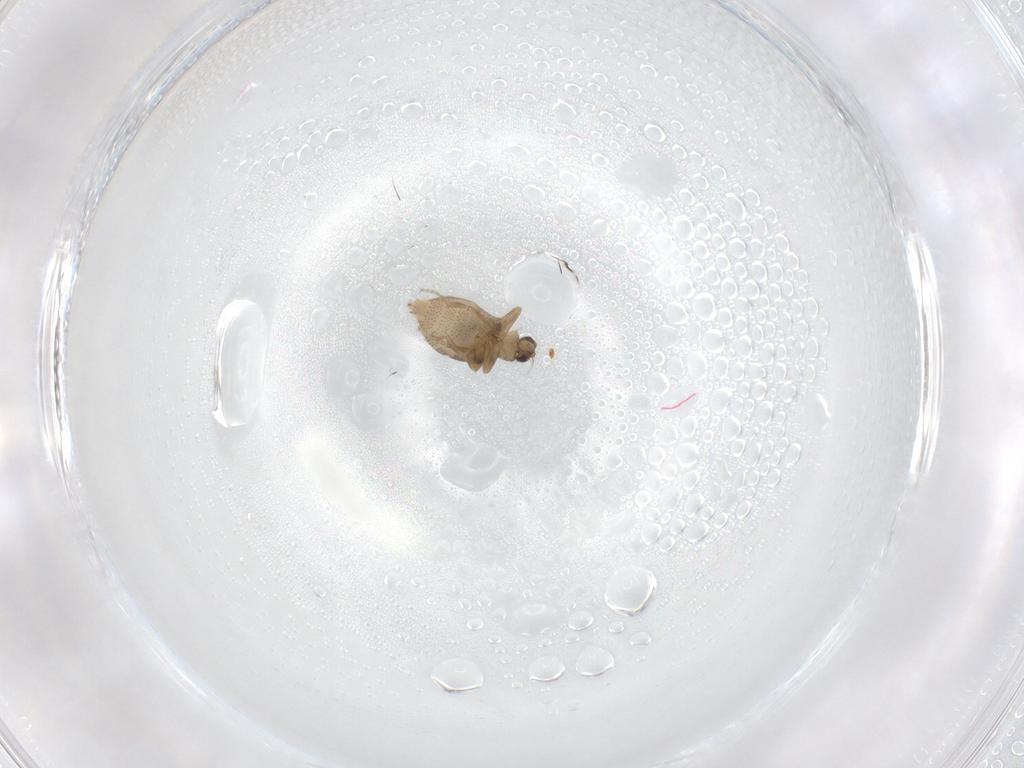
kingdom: Animalia
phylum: Arthropoda
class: Insecta
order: Diptera
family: Phoridae
